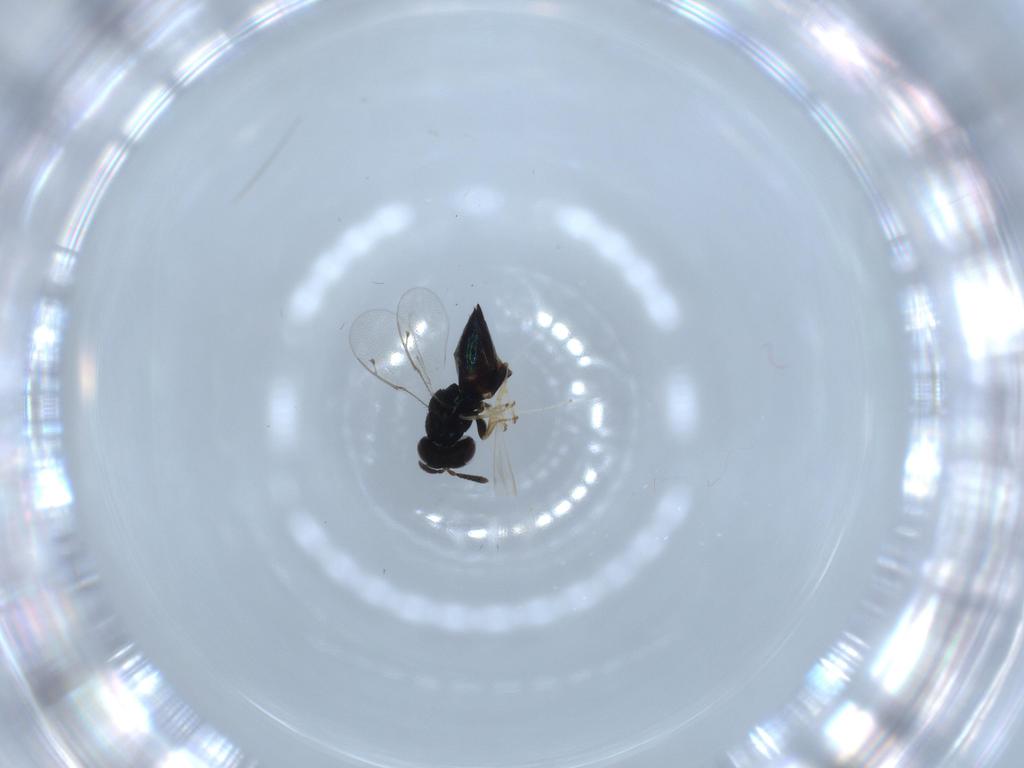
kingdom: Animalia
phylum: Arthropoda
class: Insecta
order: Hymenoptera
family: Pteromalidae
